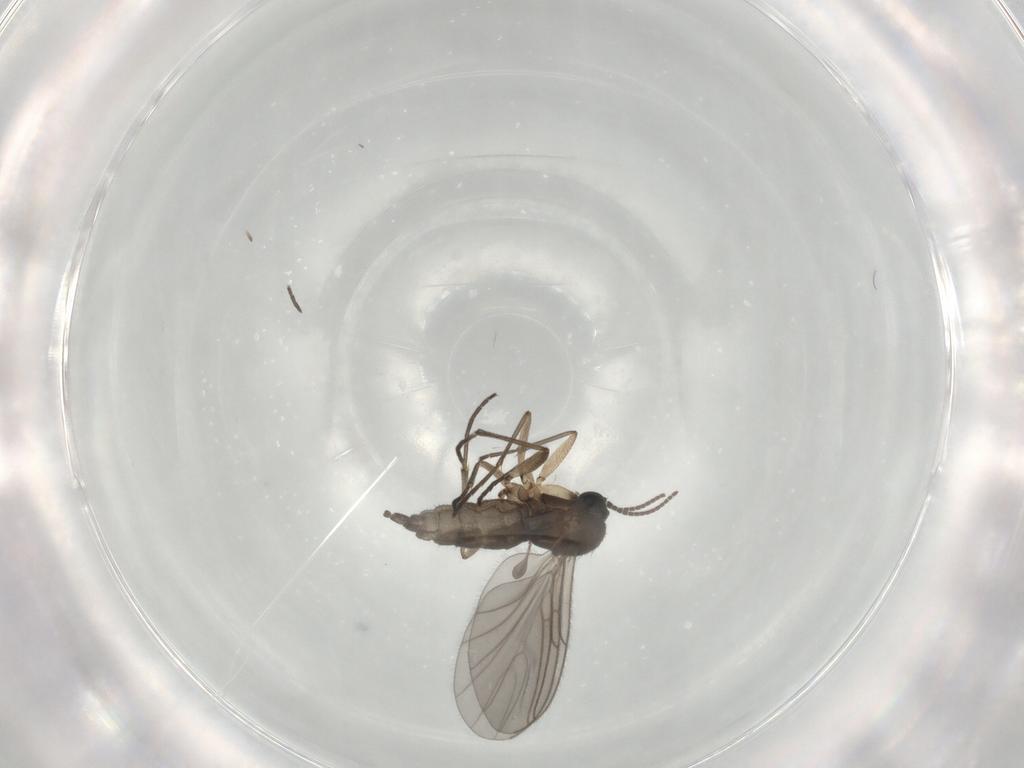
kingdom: Animalia
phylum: Arthropoda
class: Insecta
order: Diptera
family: Sciaridae
